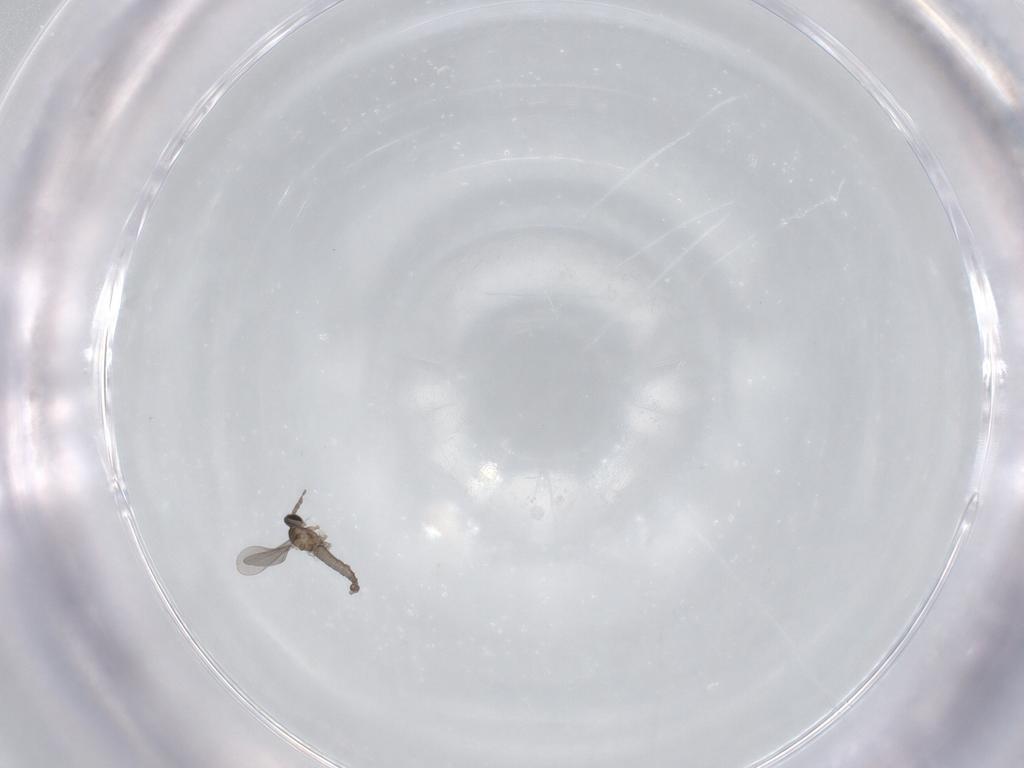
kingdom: Animalia
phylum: Arthropoda
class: Insecta
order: Diptera
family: Cecidomyiidae
